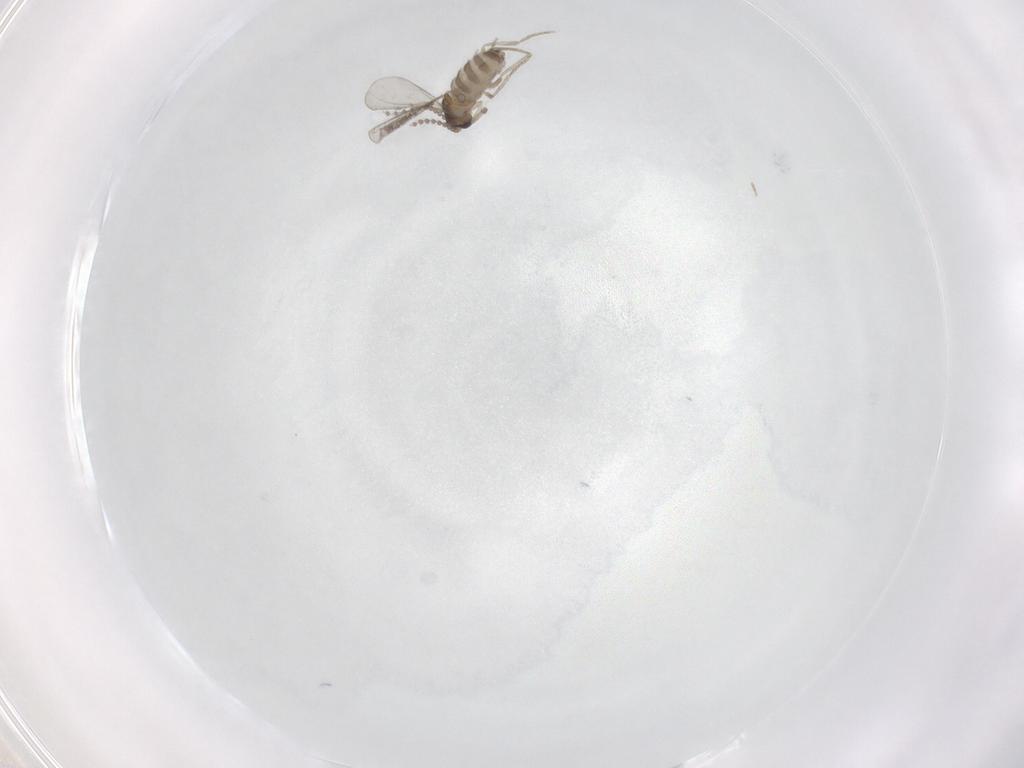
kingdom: Animalia
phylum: Arthropoda
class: Insecta
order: Diptera
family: Cecidomyiidae
